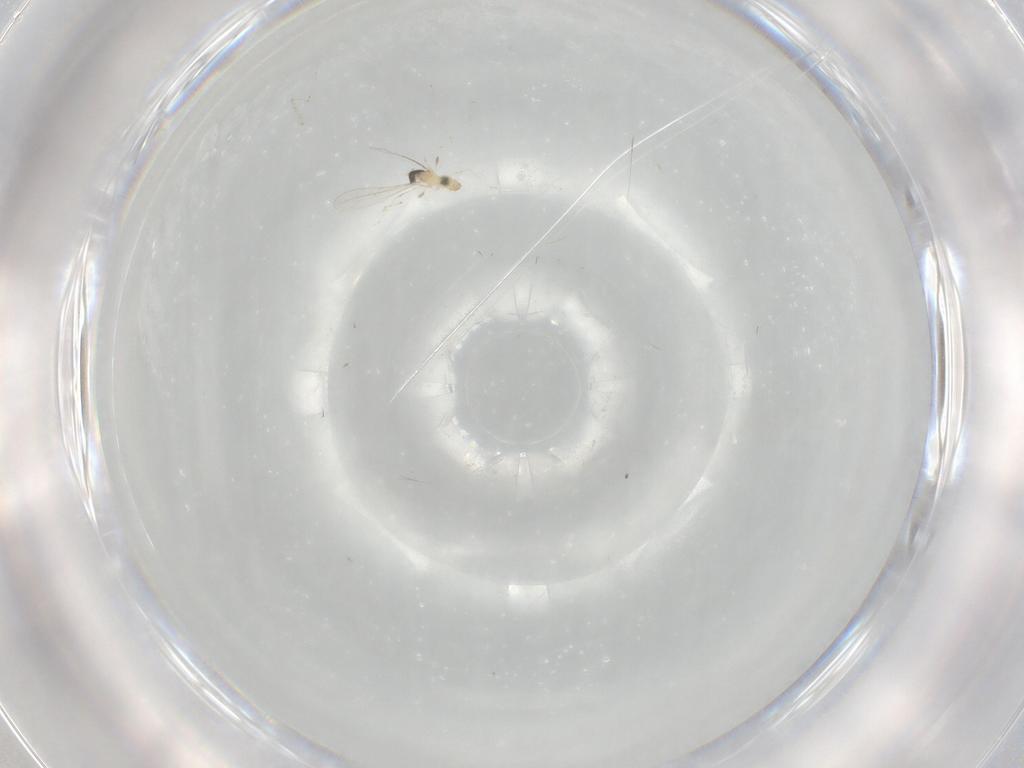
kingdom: Animalia
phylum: Arthropoda
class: Insecta
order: Diptera
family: Cecidomyiidae
